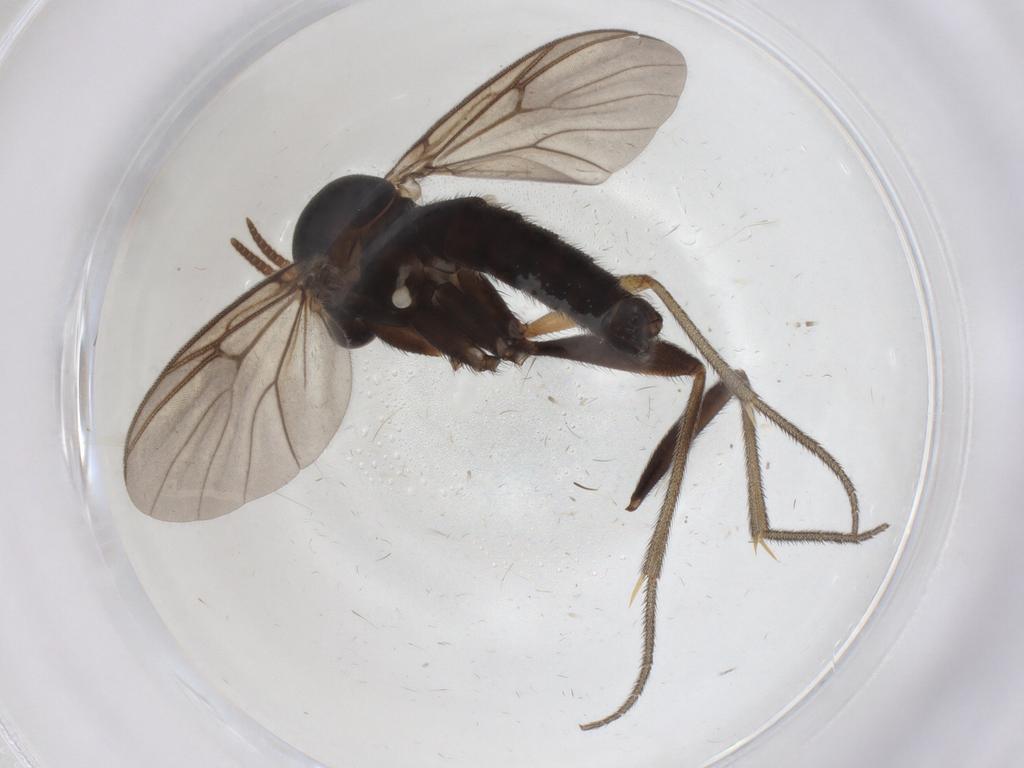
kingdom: Animalia
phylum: Arthropoda
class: Insecta
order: Diptera
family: Mycetophilidae
